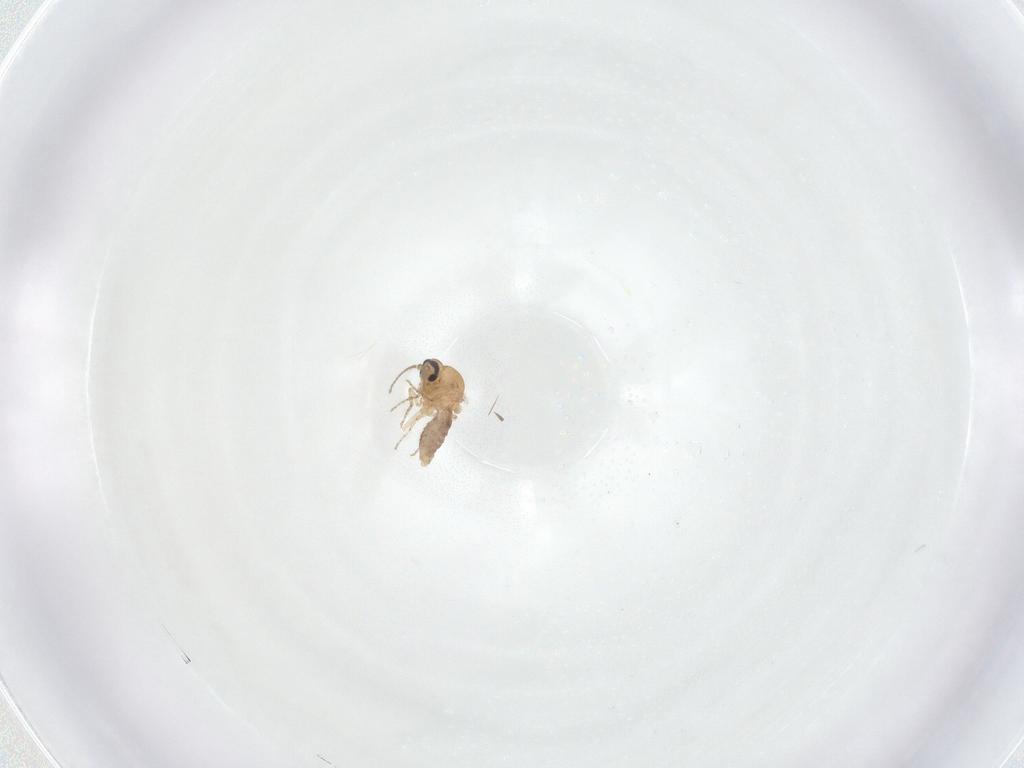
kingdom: Animalia
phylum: Arthropoda
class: Insecta
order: Diptera
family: Ceratopogonidae
